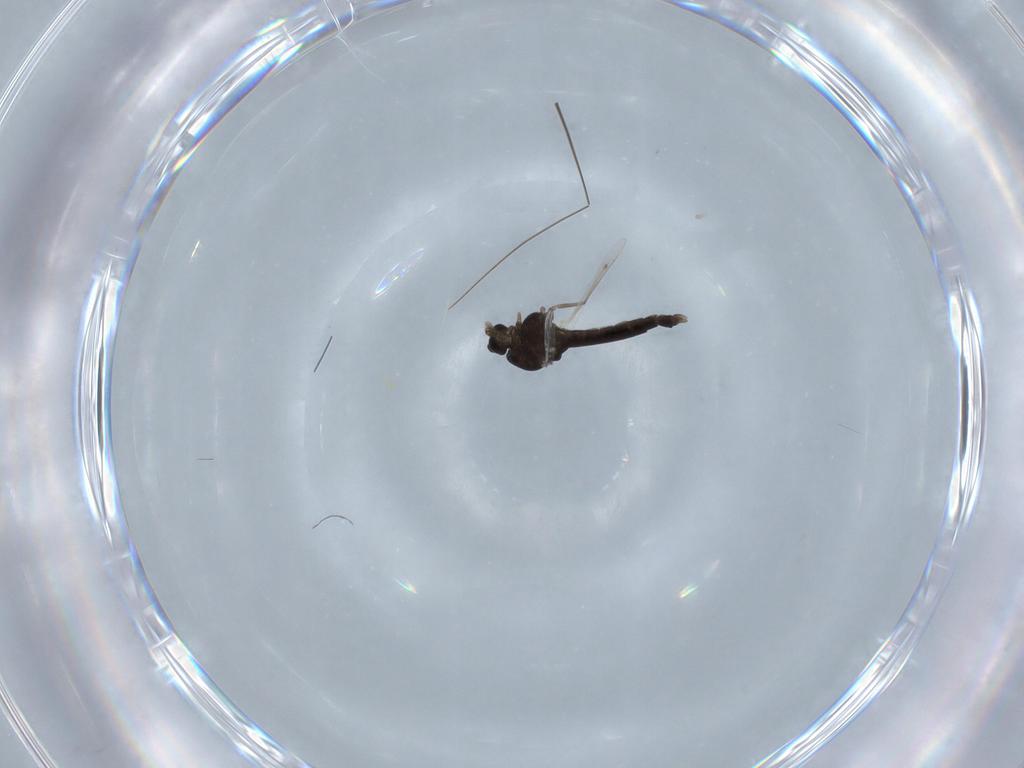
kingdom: Animalia
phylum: Arthropoda
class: Insecta
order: Diptera
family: Chironomidae
